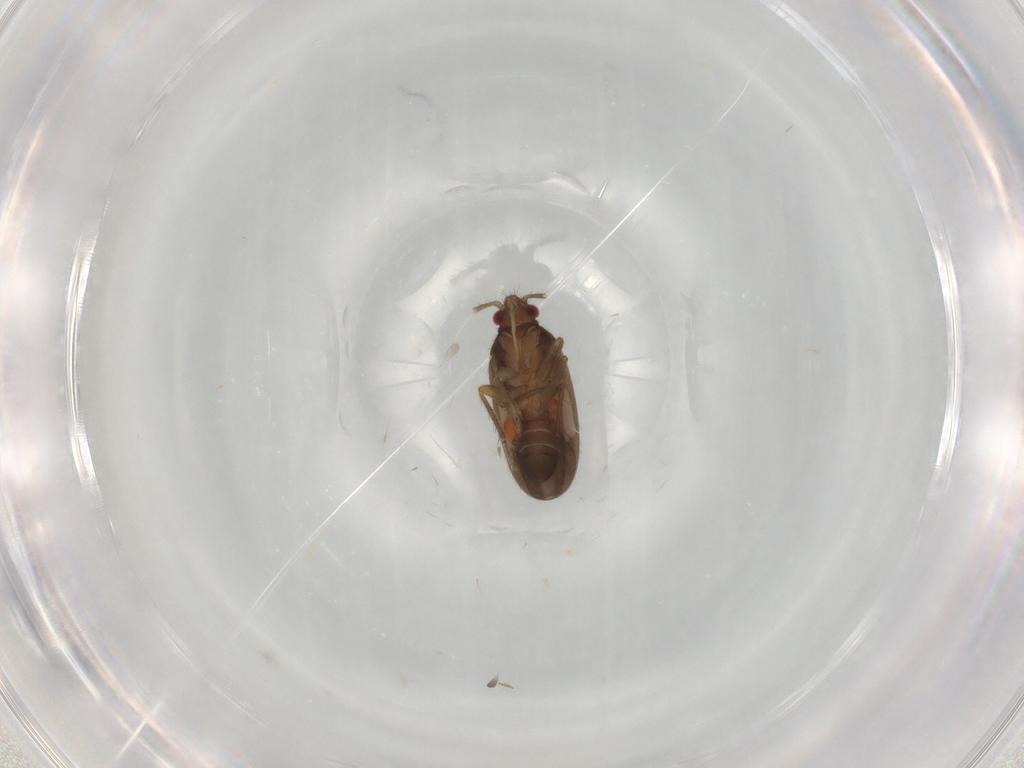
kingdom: Animalia
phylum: Arthropoda
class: Insecta
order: Hemiptera
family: Ceratocombidae
